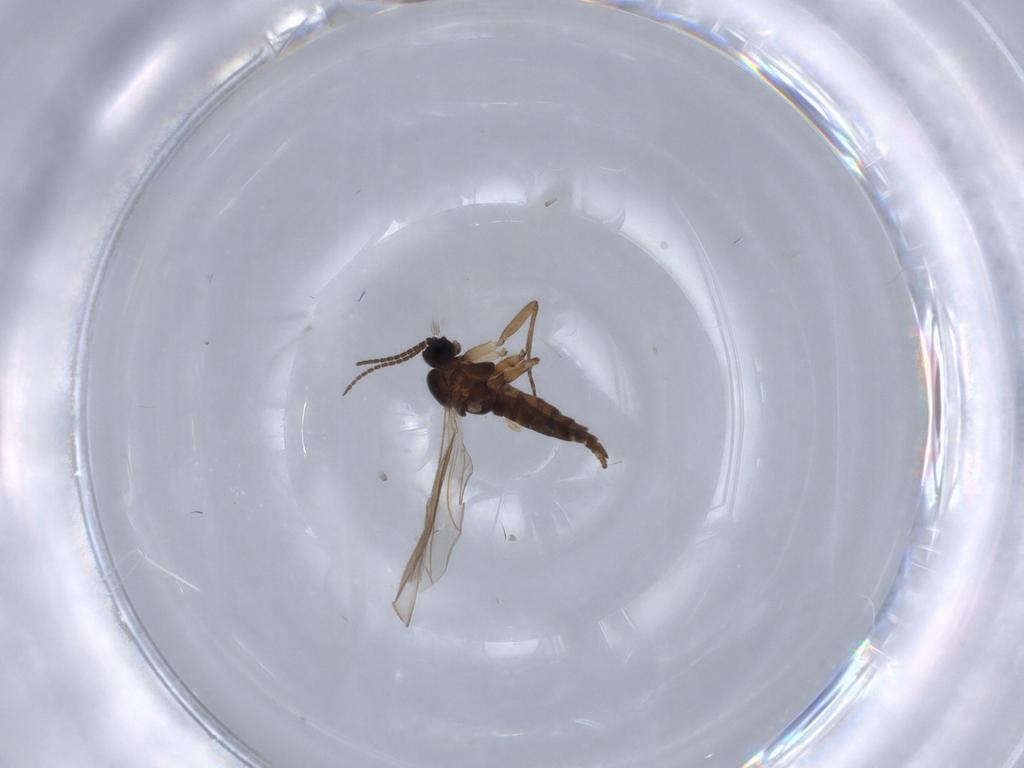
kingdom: Animalia
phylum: Arthropoda
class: Insecta
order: Diptera
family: Sciaridae
